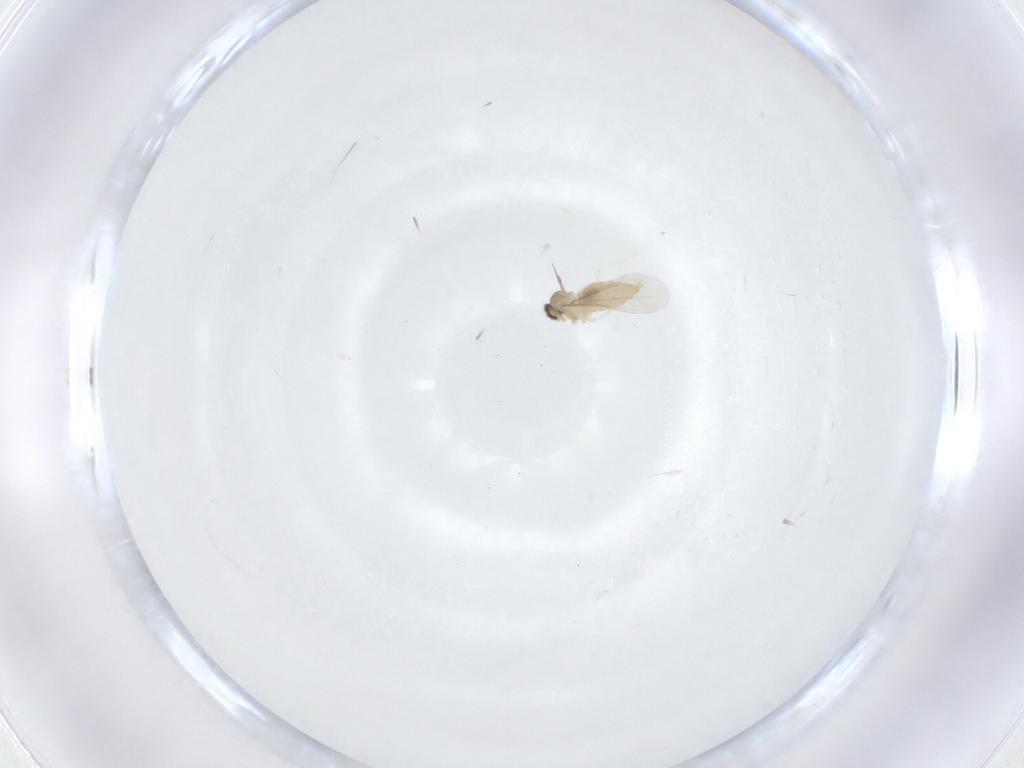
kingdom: Animalia
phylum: Arthropoda
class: Insecta
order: Diptera
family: Cecidomyiidae
